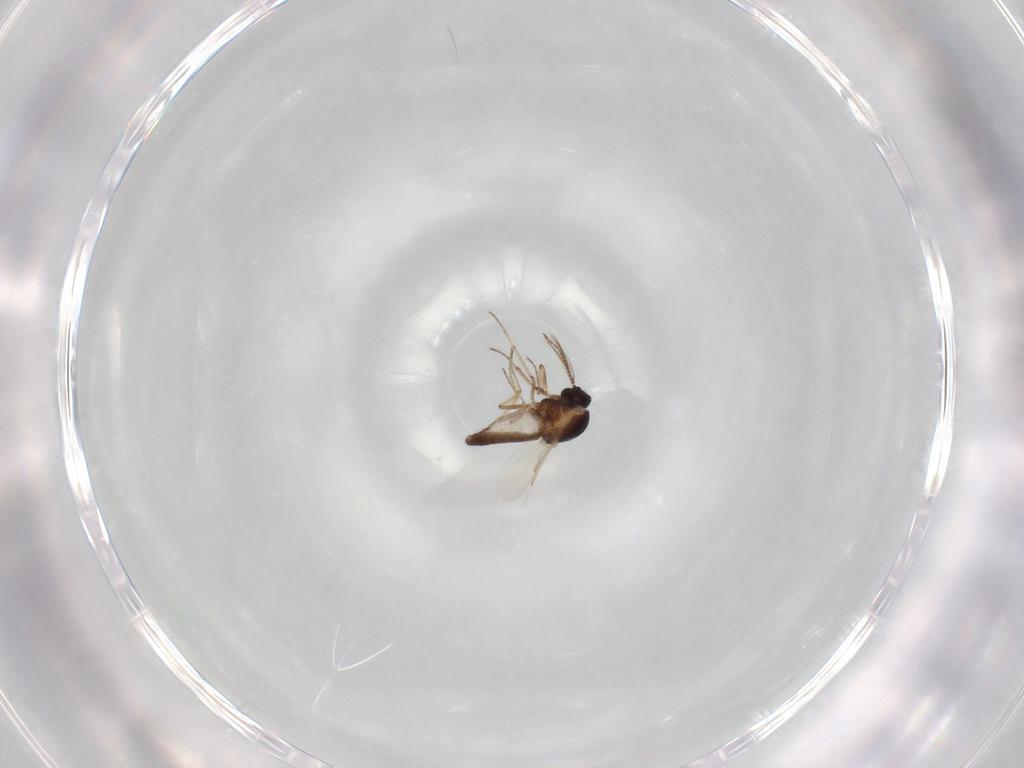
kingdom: Animalia
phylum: Arthropoda
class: Insecta
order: Diptera
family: Ceratopogonidae
